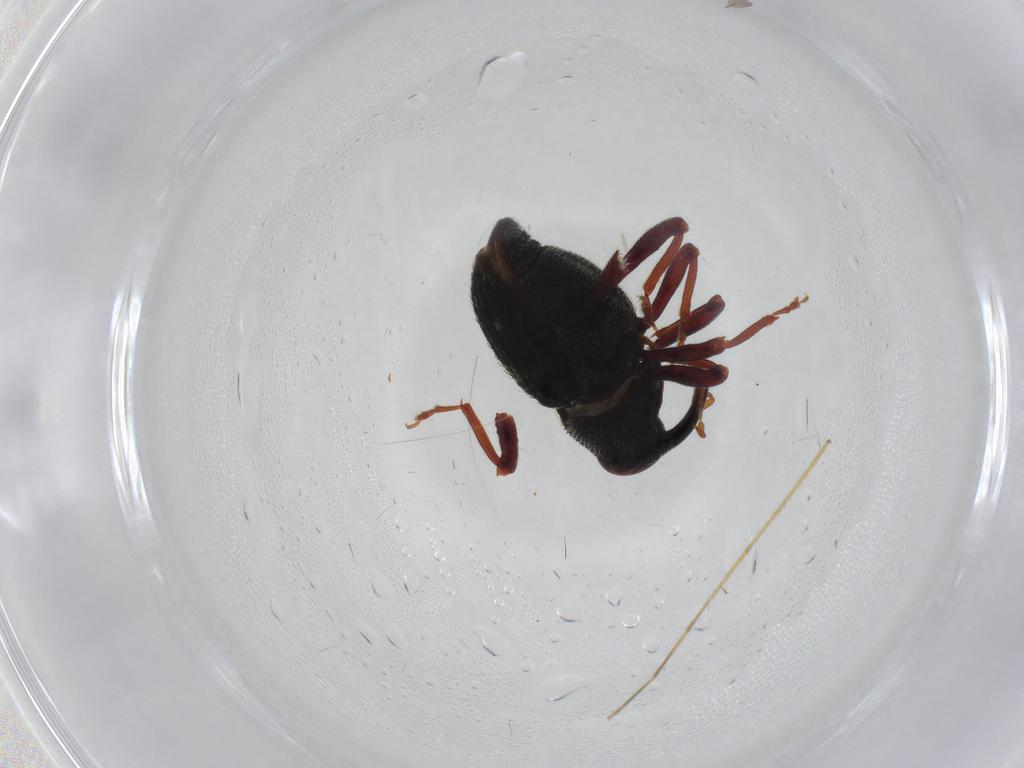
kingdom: Animalia
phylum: Arthropoda
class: Insecta
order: Coleoptera
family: Curculionidae
